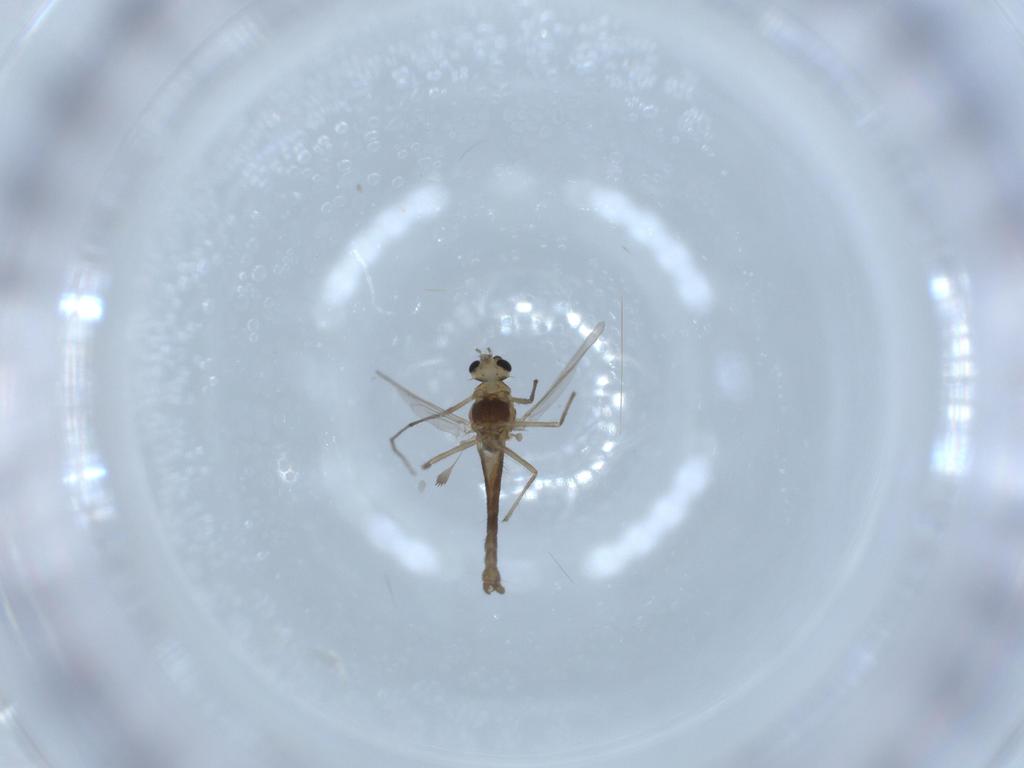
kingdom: Animalia
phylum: Arthropoda
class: Insecta
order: Diptera
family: Chironomidae
